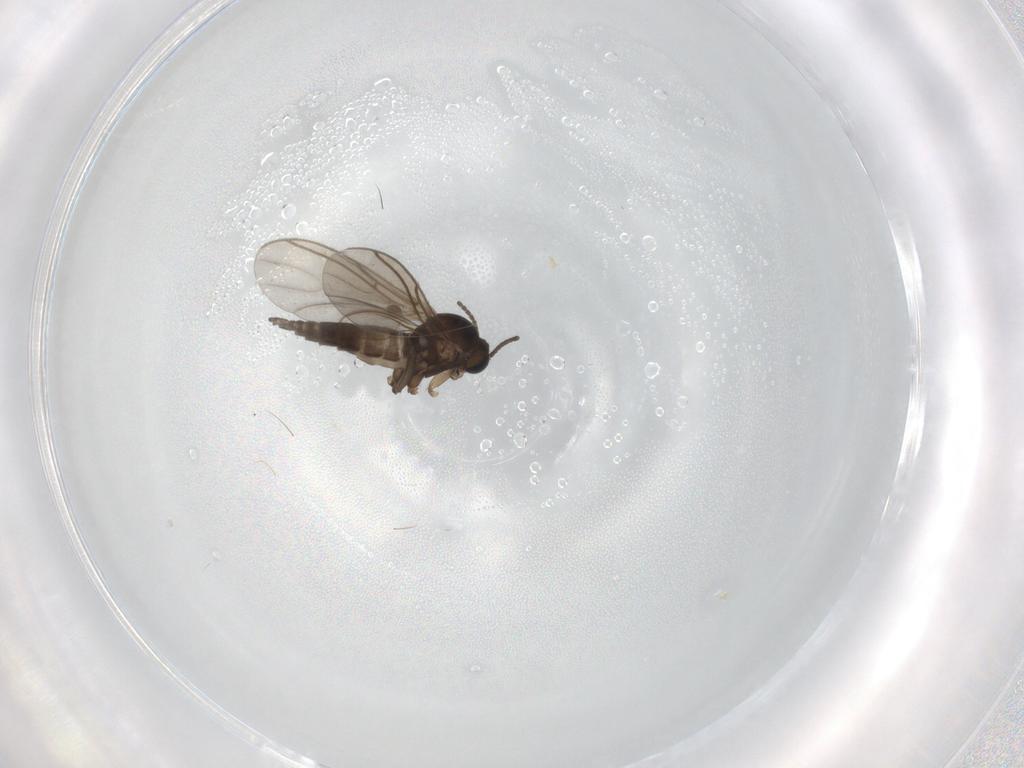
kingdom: Animalia
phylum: Arthropoda
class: Insecta
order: Diptera
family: Sciaridae
